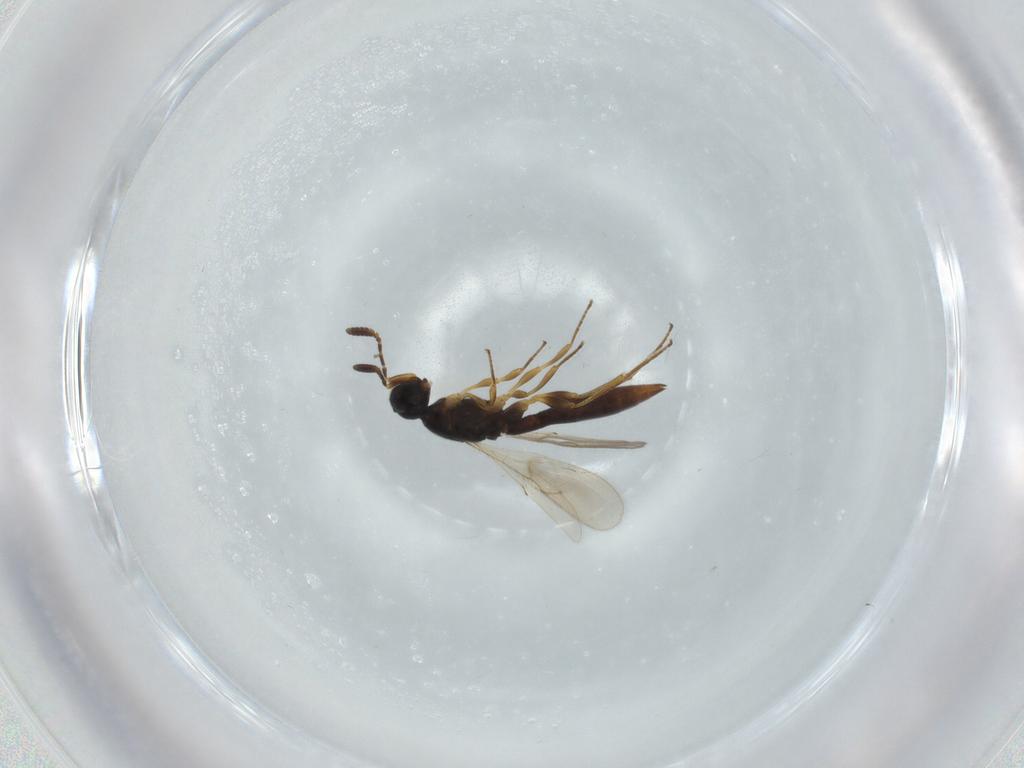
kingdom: Animalia
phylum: Arthropoda
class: Insecta
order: Hymenoptera
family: Scelionidae
